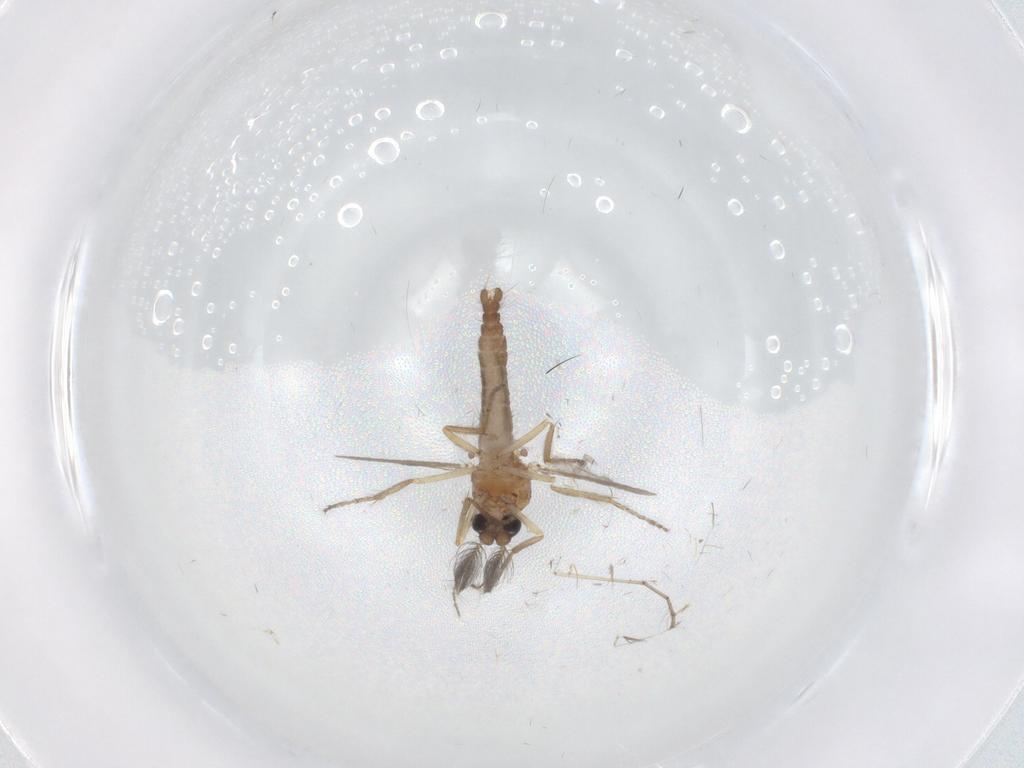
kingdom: Animalia
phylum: Arthropoda
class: Insecta
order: Diptera
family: Ceratopogonidae
